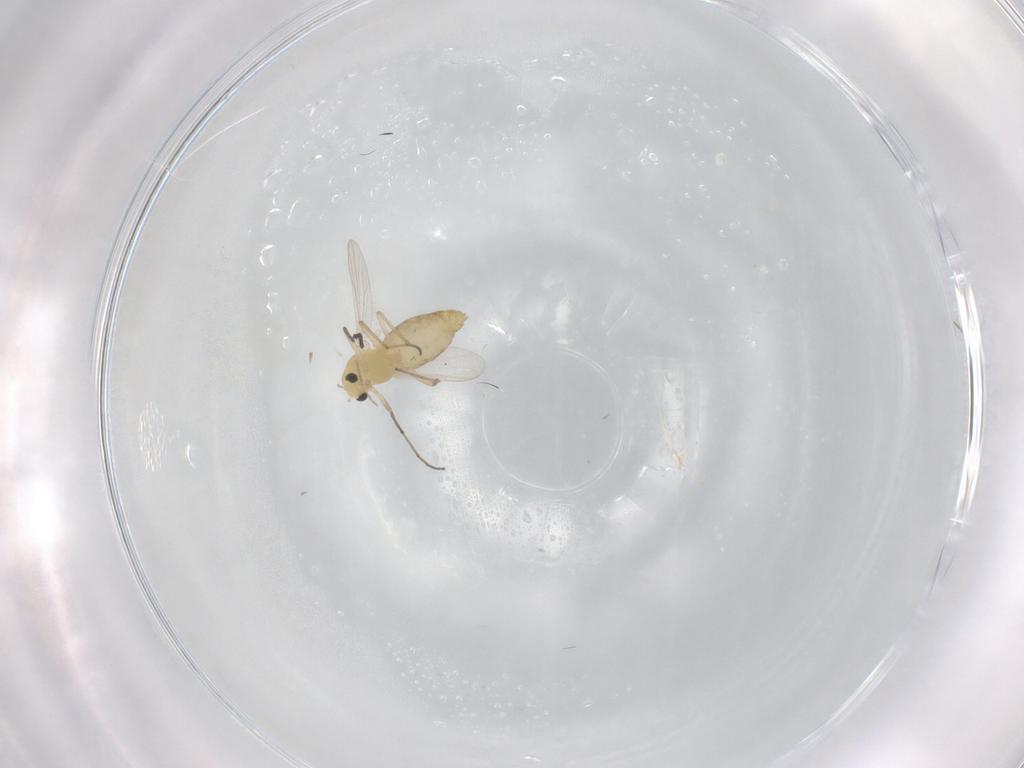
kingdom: Animalia
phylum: Arthropoda
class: Insecta
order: Diptera
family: Chironomidae
